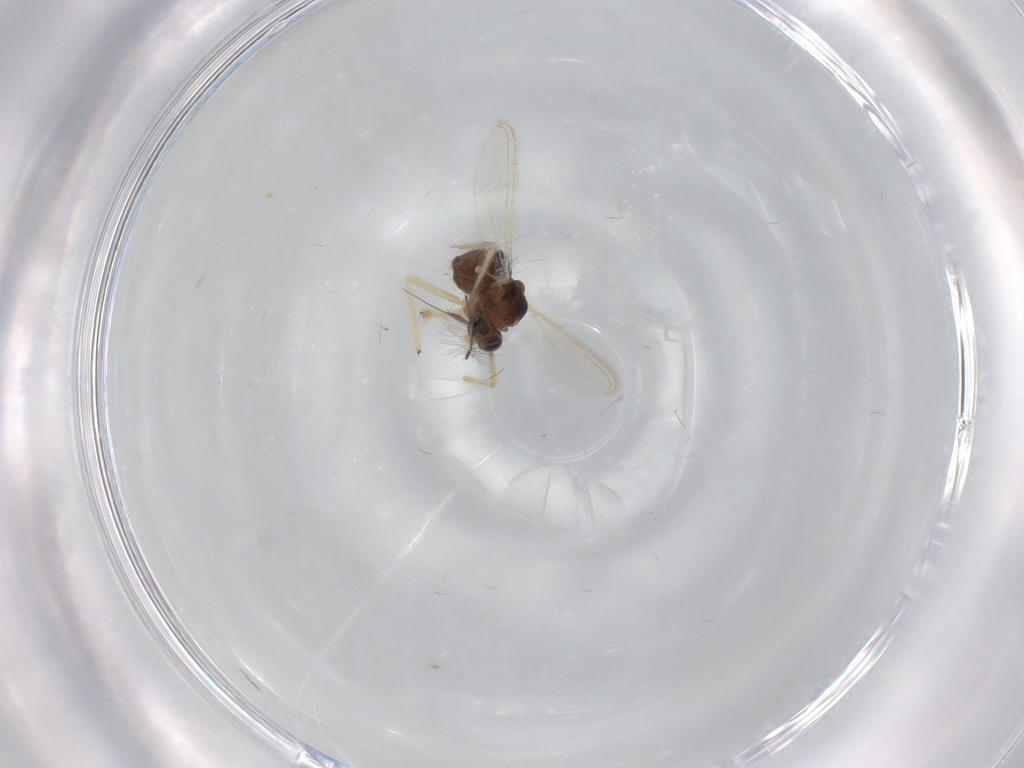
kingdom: Animalia
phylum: Arthropoda
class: Insecta
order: Diptera
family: Chironomidae
